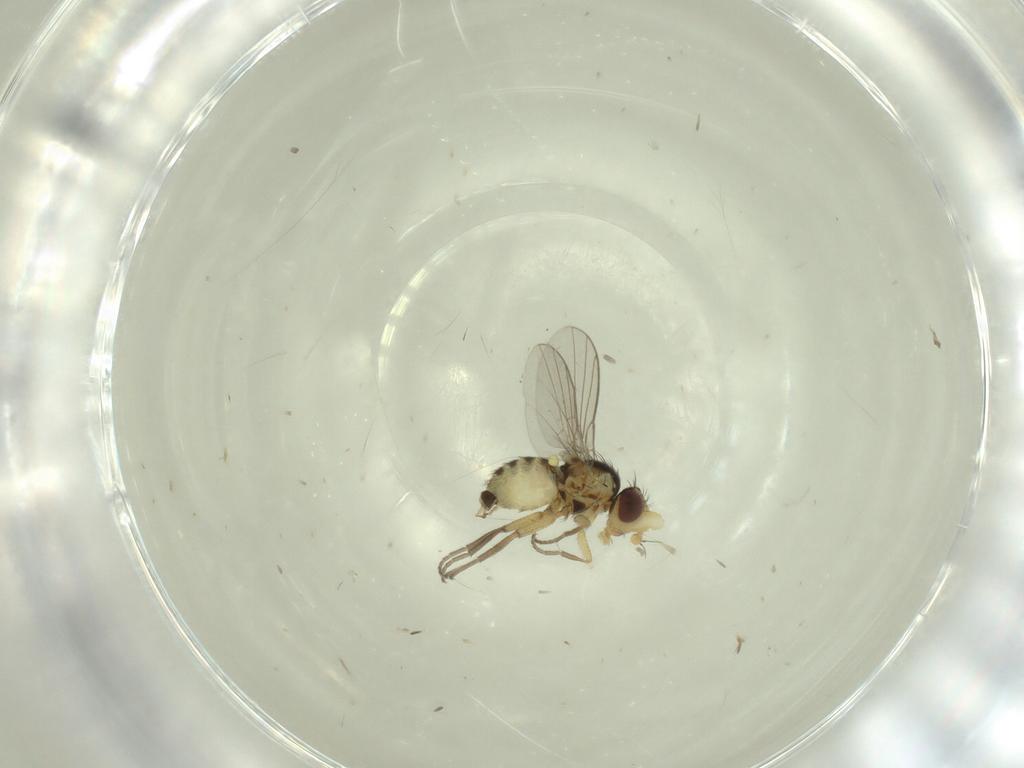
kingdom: Animalia
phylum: Arthropoda
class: Insecta
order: Diptera
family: Mythicomyiidae
